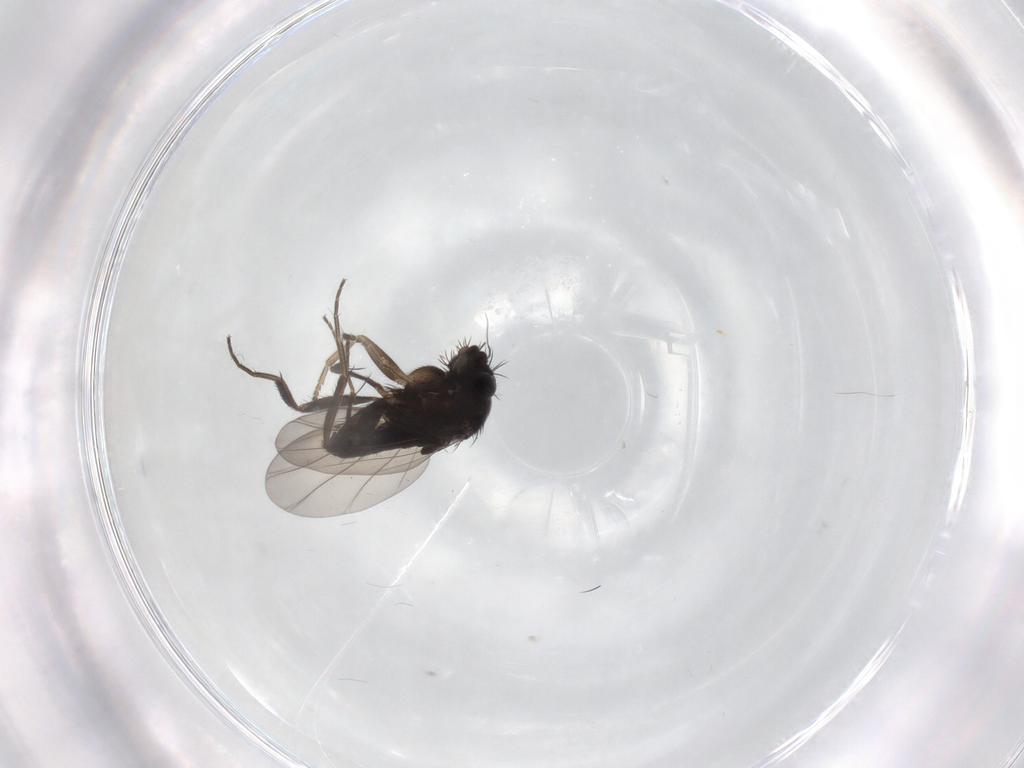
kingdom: Animalia
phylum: Arthropoda
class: Insecta
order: Diptera
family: Phoridae
